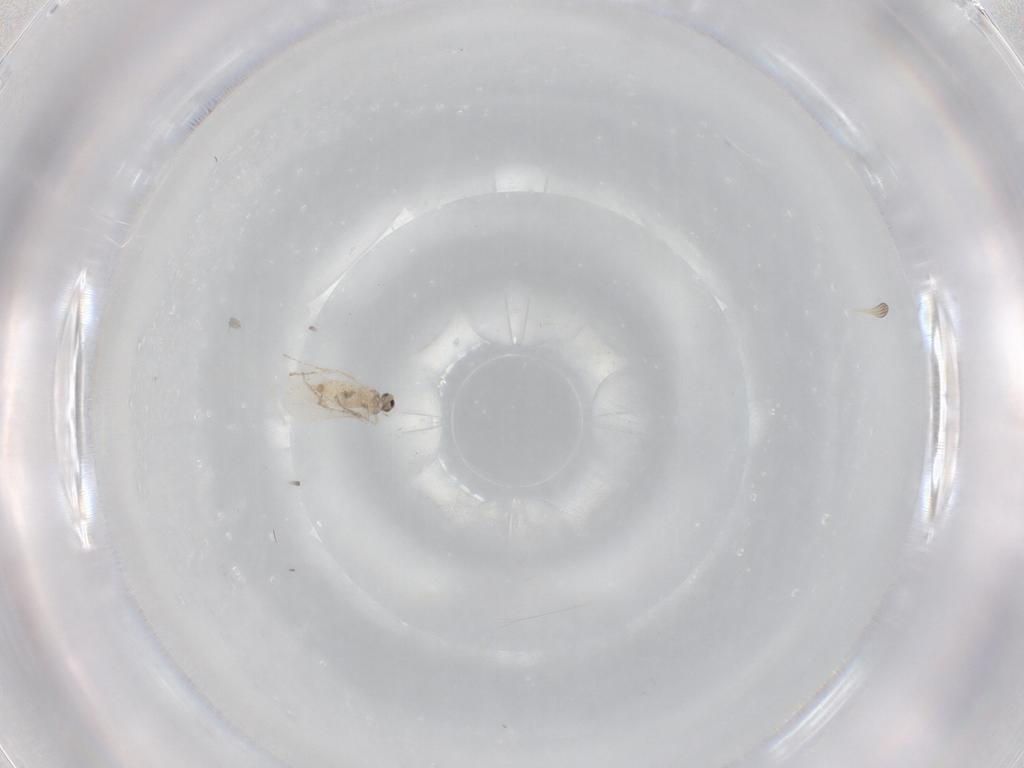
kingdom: Animalia
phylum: Arthropoda
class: Insecta
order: Diptera
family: Cecidomyiidae
